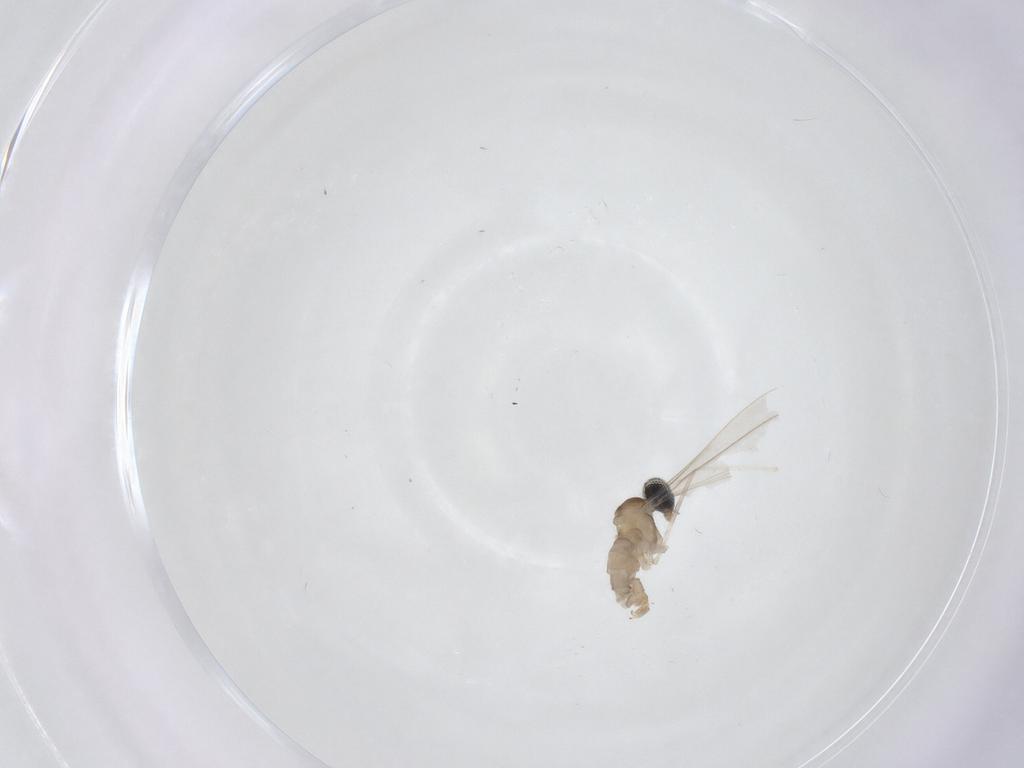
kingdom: Animalia
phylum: Arthropoda
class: Insecta
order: Diptera
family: Cecidomyiidae
